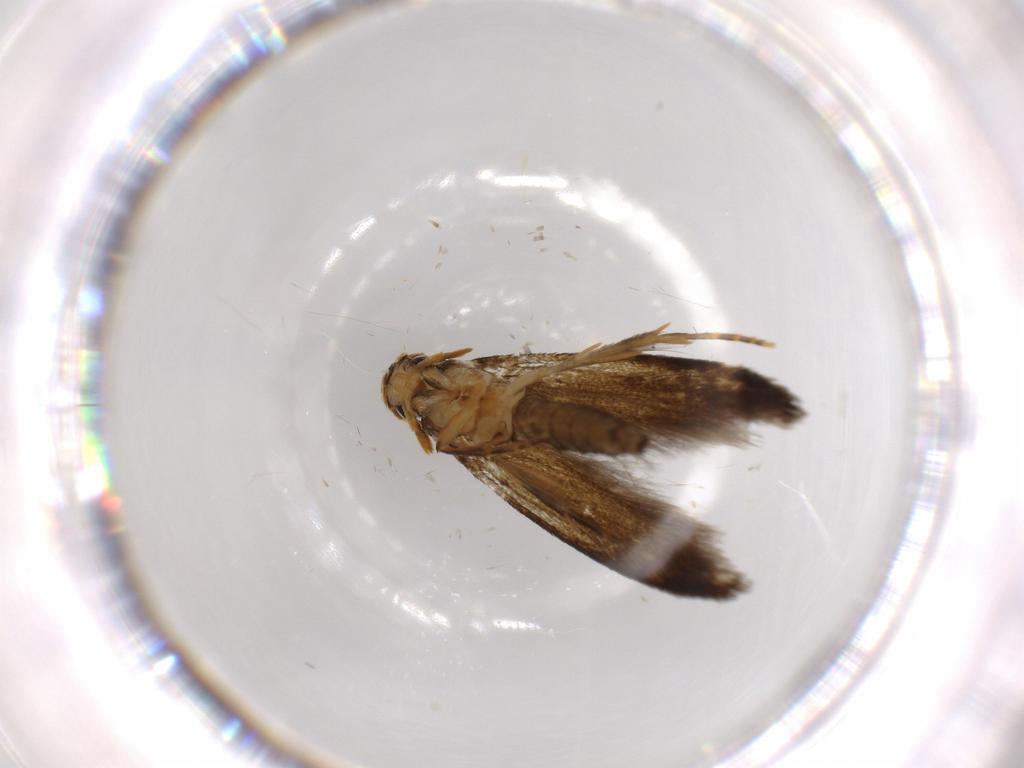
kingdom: Animalia
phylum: Arthropoda
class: Insecta
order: Lepidoptera
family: Tineidae
